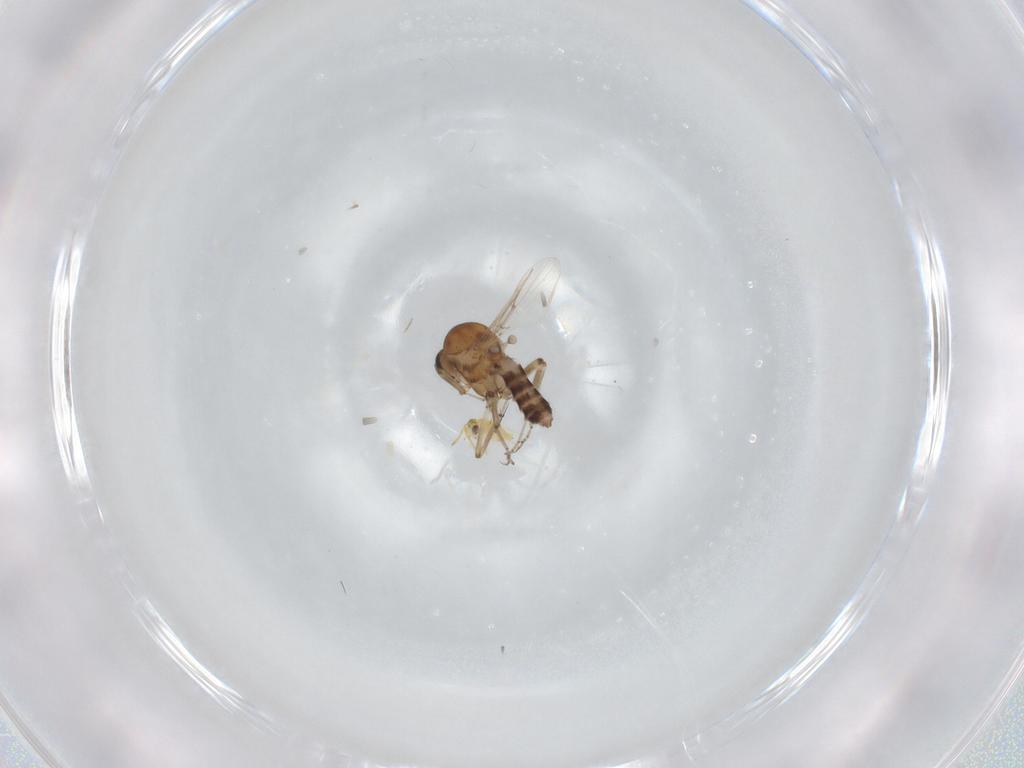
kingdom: Animalia
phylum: Arthropoda
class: Insecta
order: Diptera
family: Ceratopogonidae
